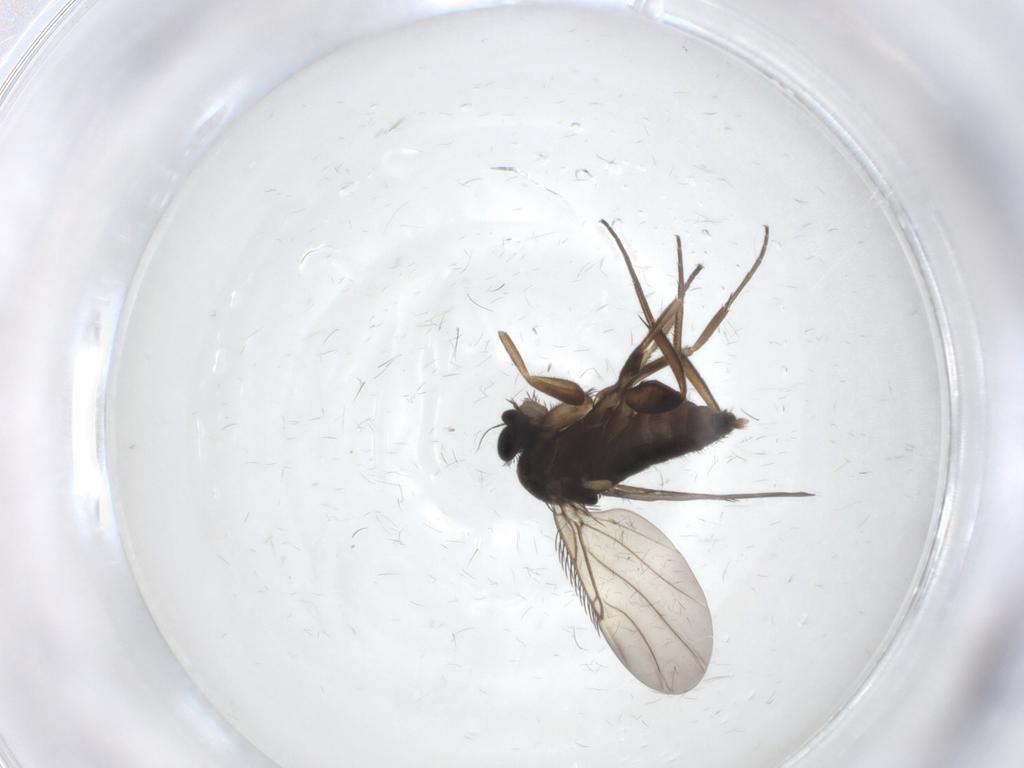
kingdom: Animalia
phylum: Arthropoda
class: Insecta
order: Diptera
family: Phoridae
